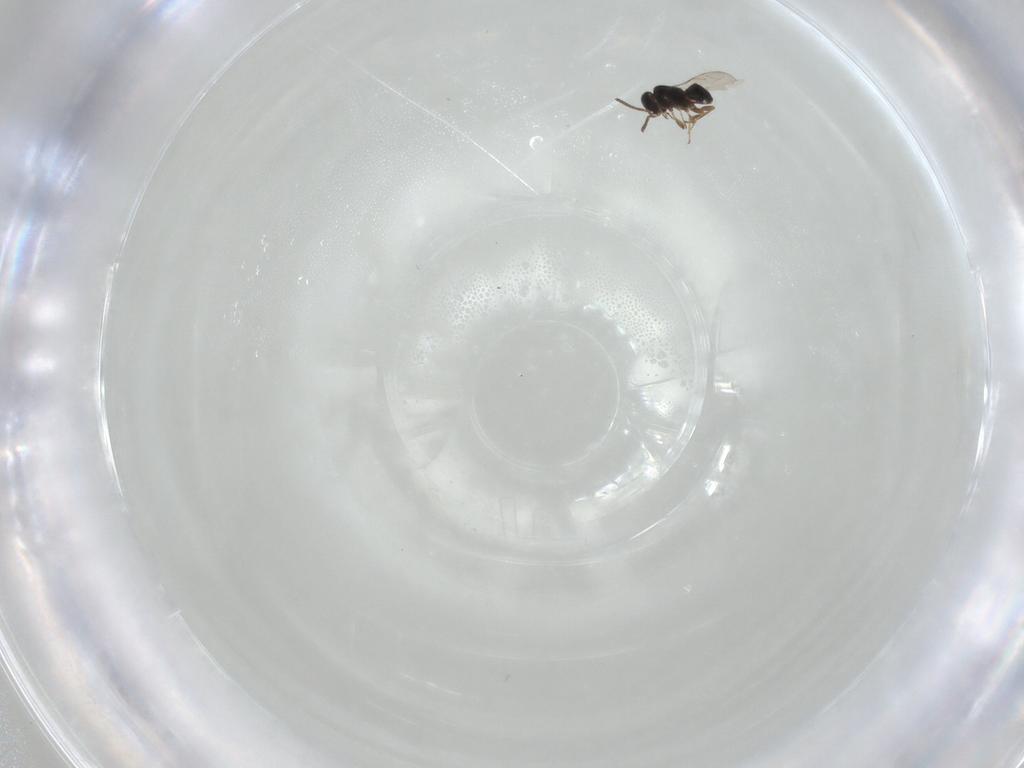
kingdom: Animalia
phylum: Arthropoda
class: Insecta
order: Hymenoptera
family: Scelionidae
